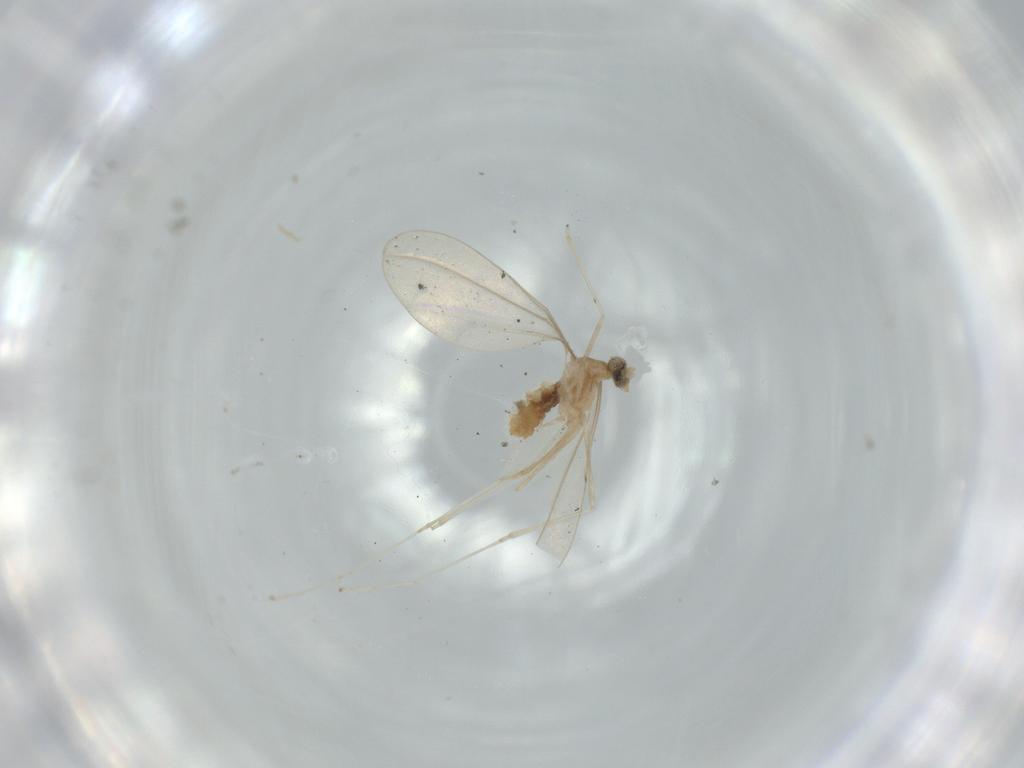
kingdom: Animalia
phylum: Arthropoda
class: Insecta
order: Diptera
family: Cecidomyiidae
